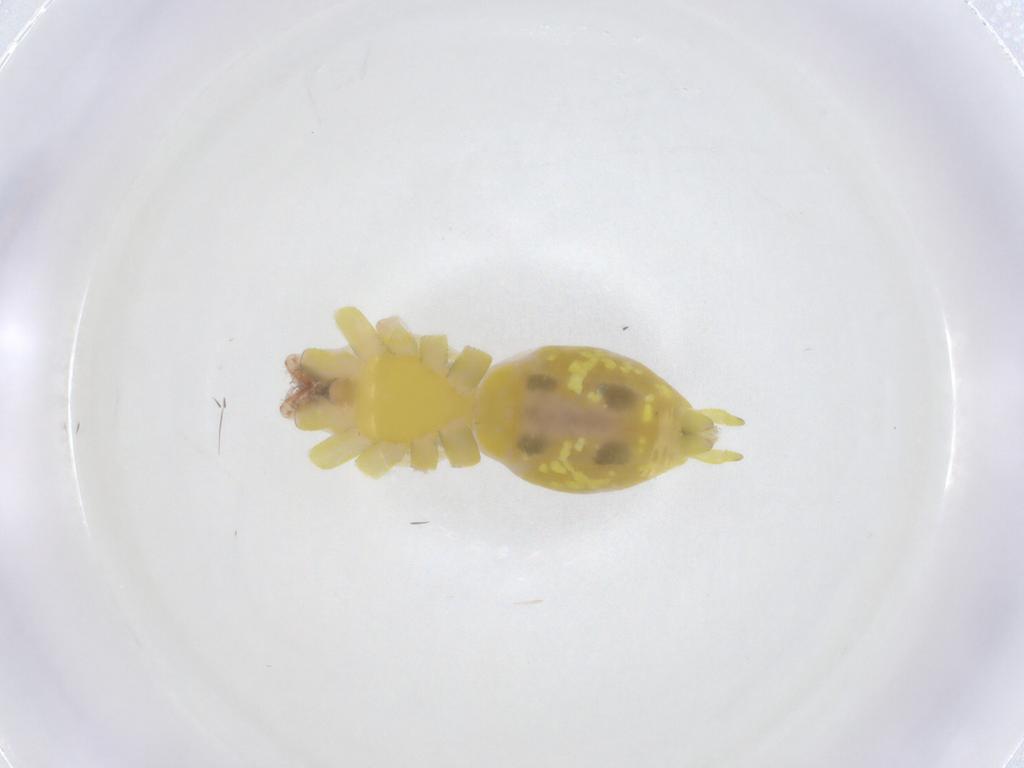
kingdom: Animalia
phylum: Arthropoda
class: Arachnida
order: Araneae
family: Cheiracanthiidae
